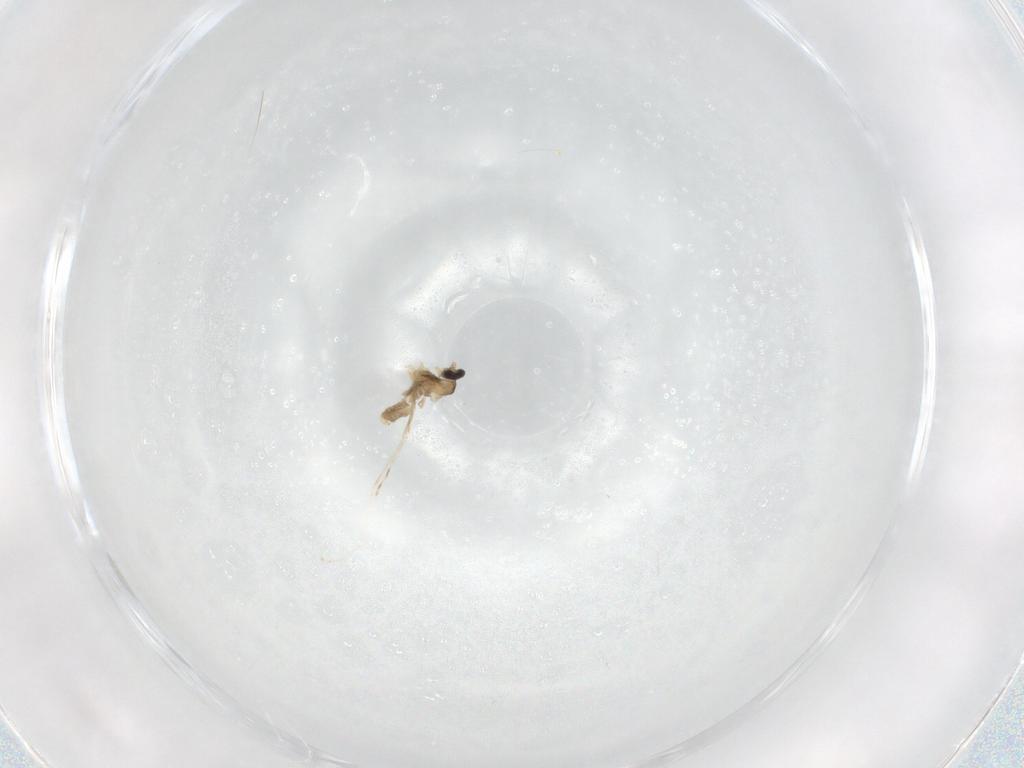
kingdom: Animalia
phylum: Arthropoda
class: Insecta
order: Diptera
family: Cecidomyiidae
